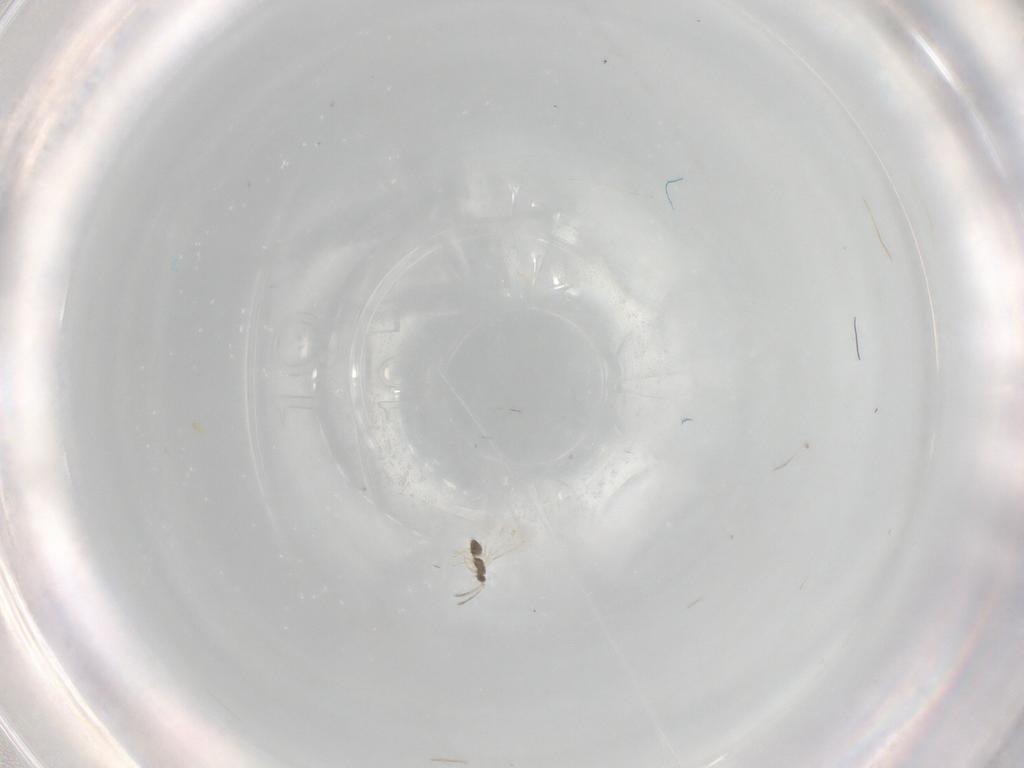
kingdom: Animalia
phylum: Arthropoda
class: Insecta
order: Hymenoptera
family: Mymaridae
